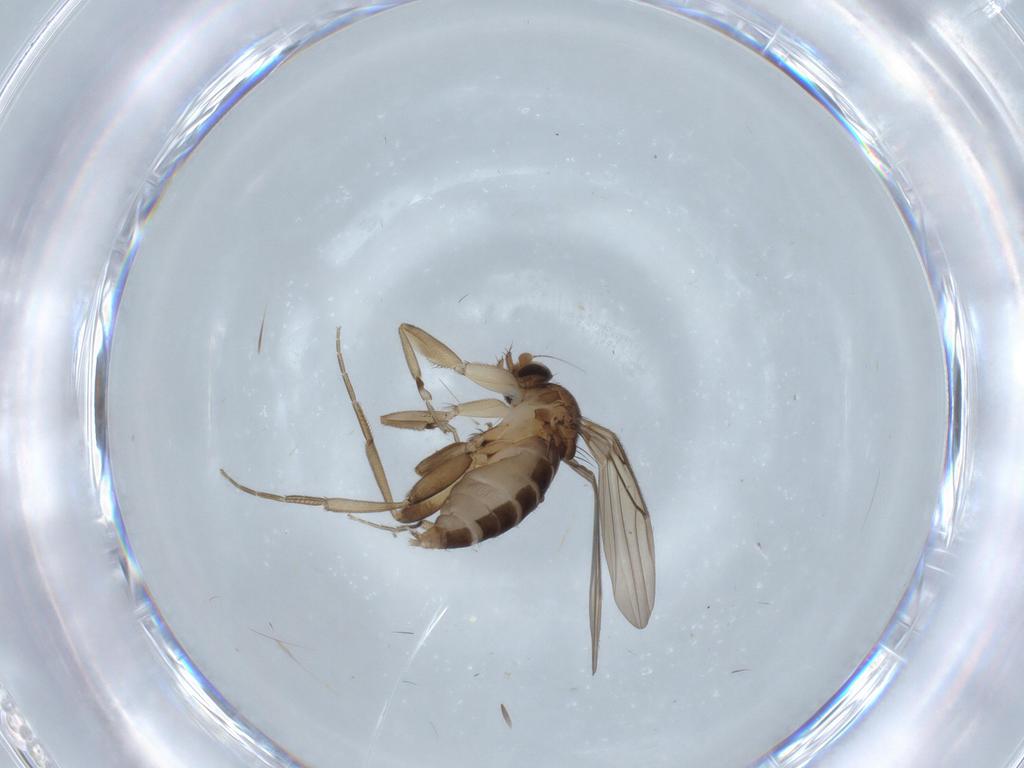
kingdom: Animalia
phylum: Arthropoda
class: Insecta
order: Diptera
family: Phoridae
